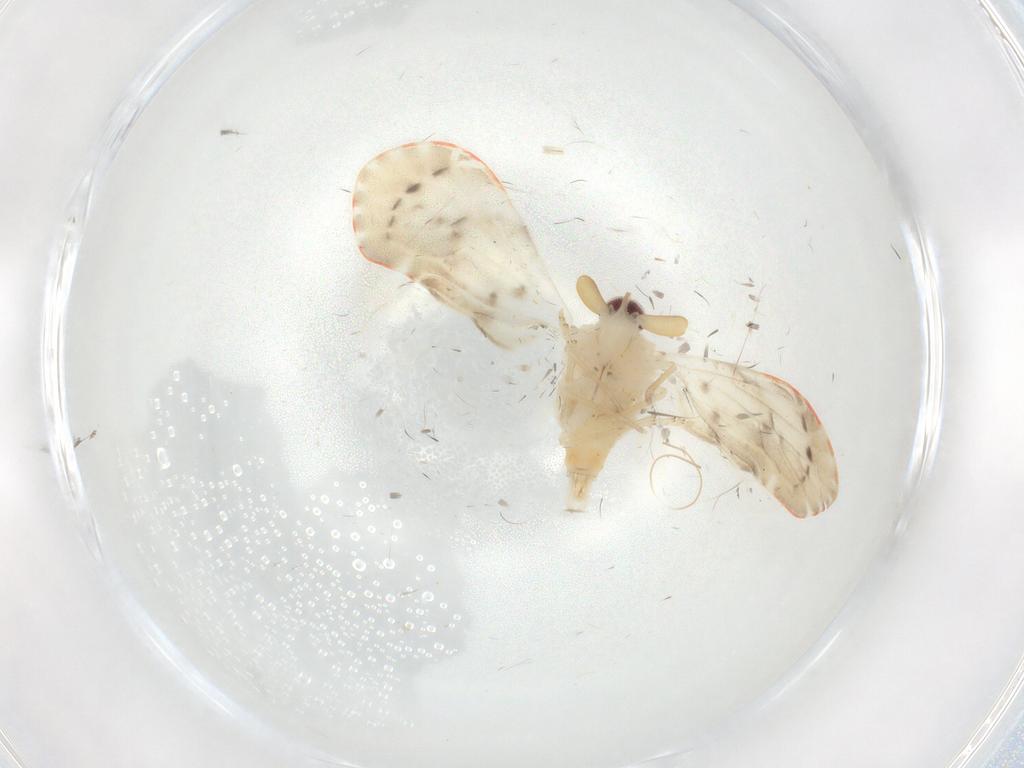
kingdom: Animalia
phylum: Arthropoda
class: Insecta
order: Hemiptera
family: Derbidae
